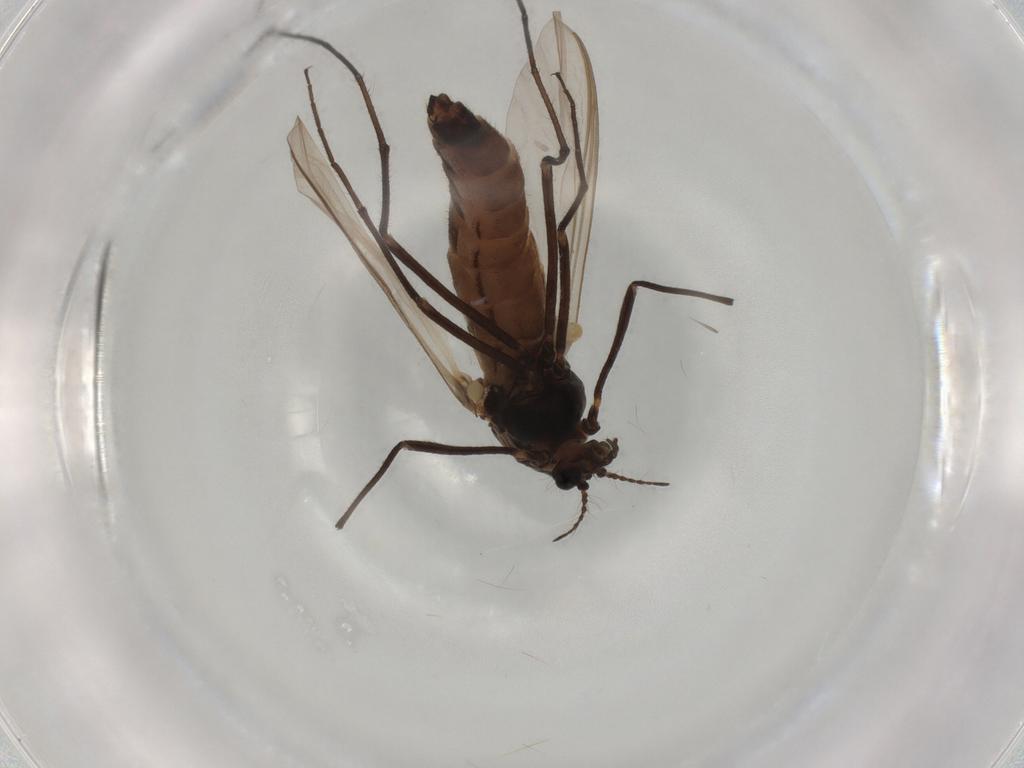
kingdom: Animalia
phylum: Arthropoda
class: Insecta
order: Diptera
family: Chironomidae
